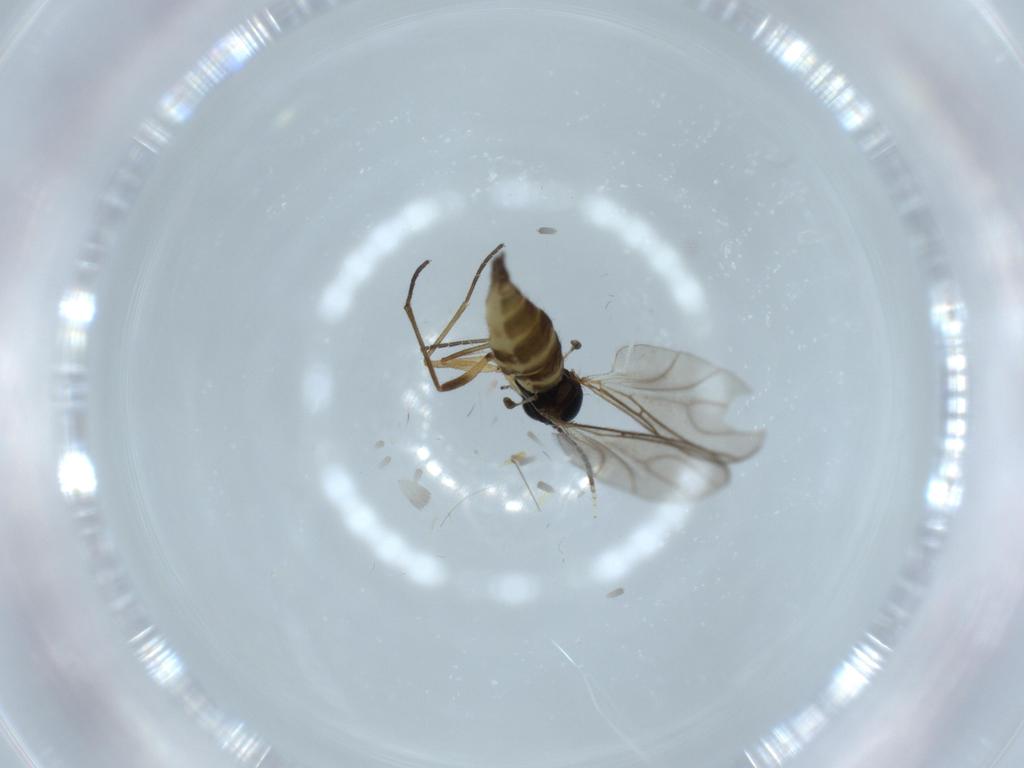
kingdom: Animalia
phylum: Arthropoda
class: Insecta
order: Diptera
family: Sciaridae
